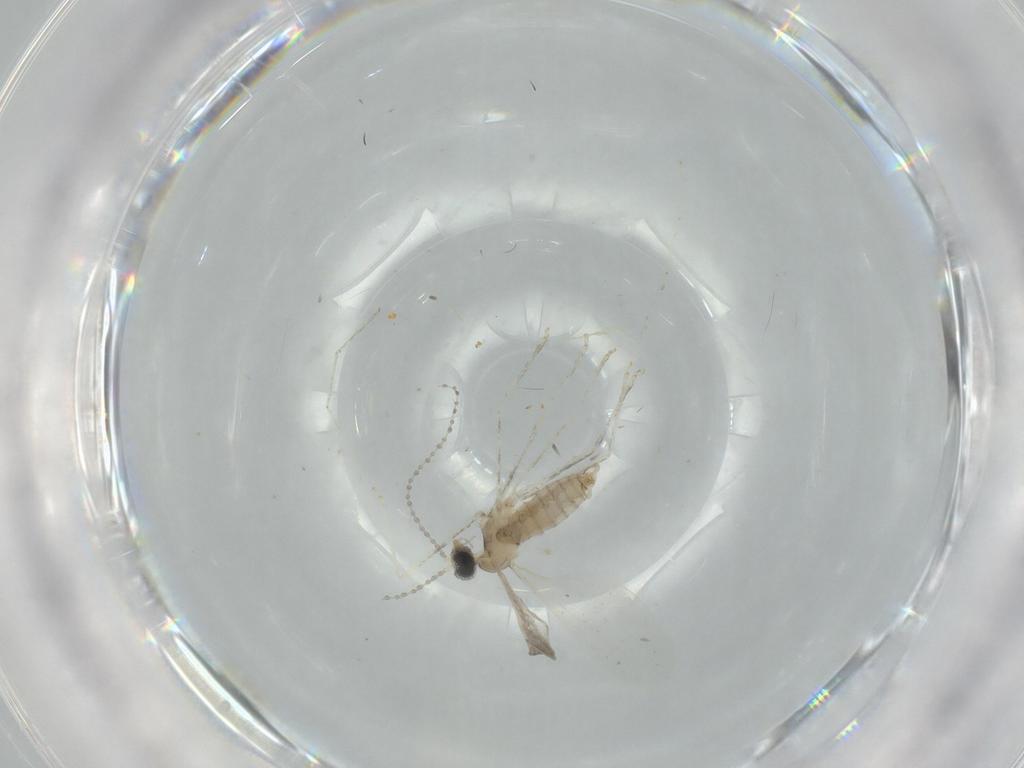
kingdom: Animalia
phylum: Arthropoda
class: Insecta
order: Diptera
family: Cecidomyiidae
